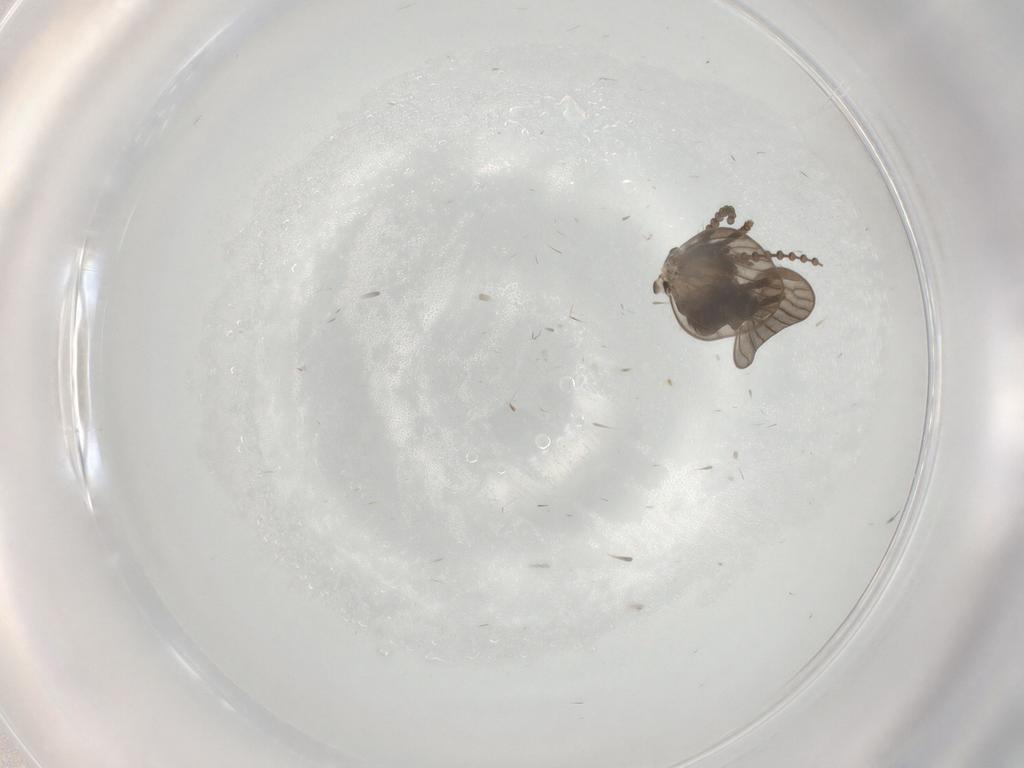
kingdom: Animalia
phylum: Arthropoda
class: Insecta
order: Diptera
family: Psychodidae
